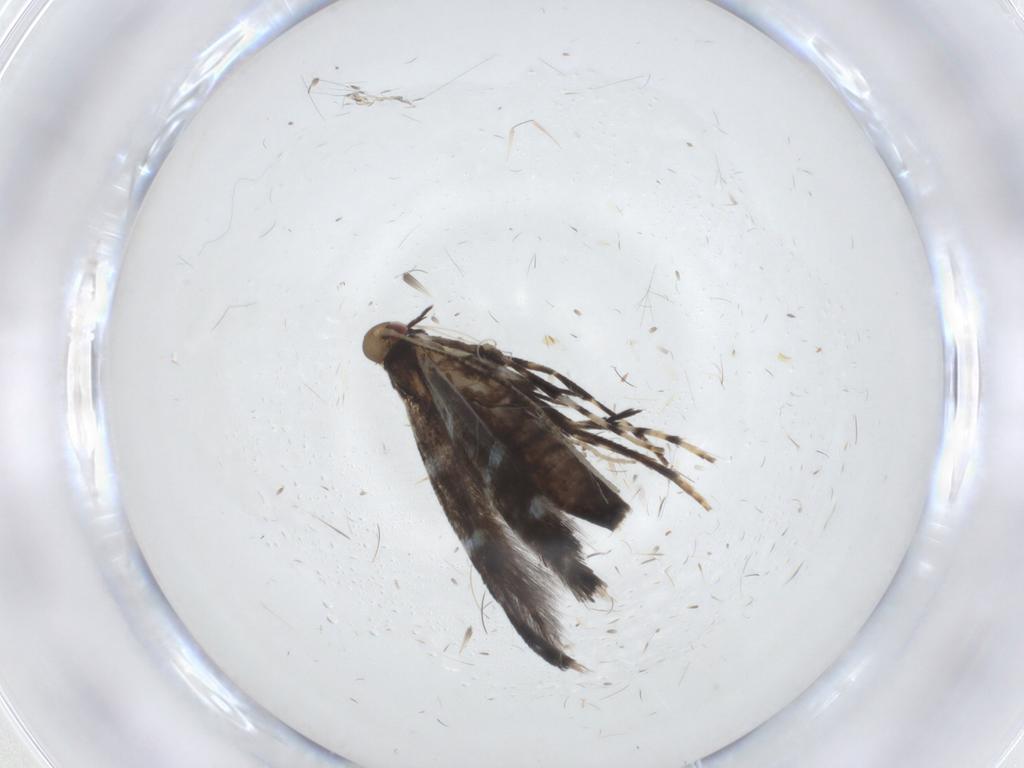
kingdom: Animalia
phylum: Arthropoda
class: Insecta
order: Lepidoptera
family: Gracillariidae
